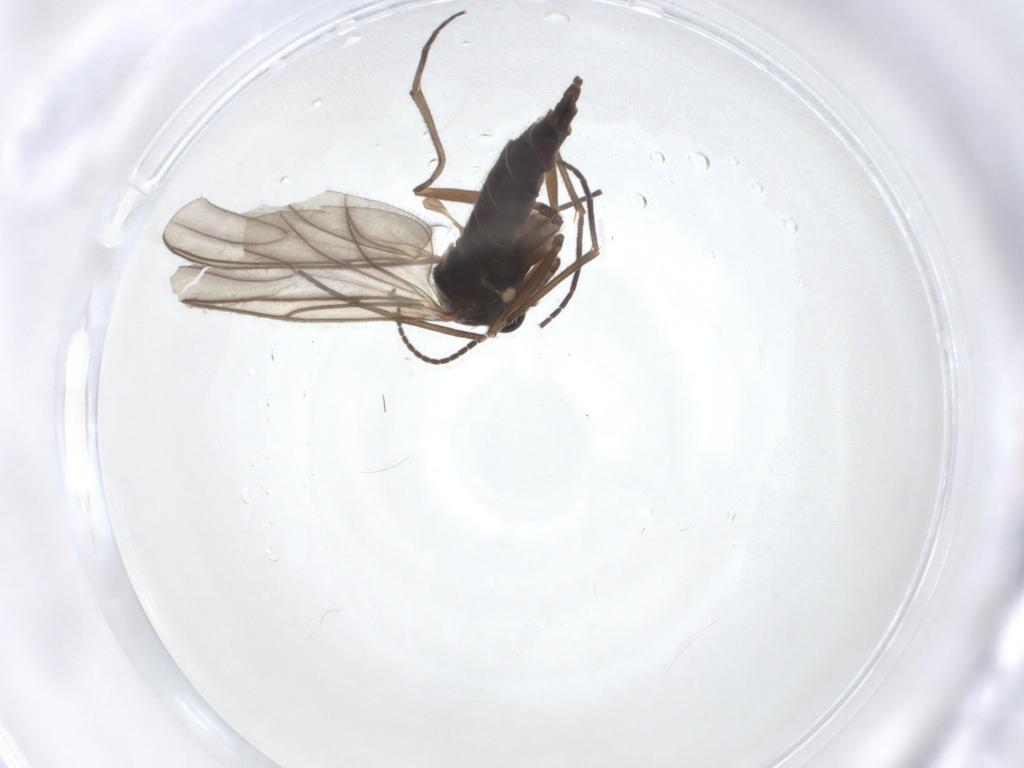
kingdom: Animalia
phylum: Arthropoda
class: Insecta
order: Diptera
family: Sciaridae
